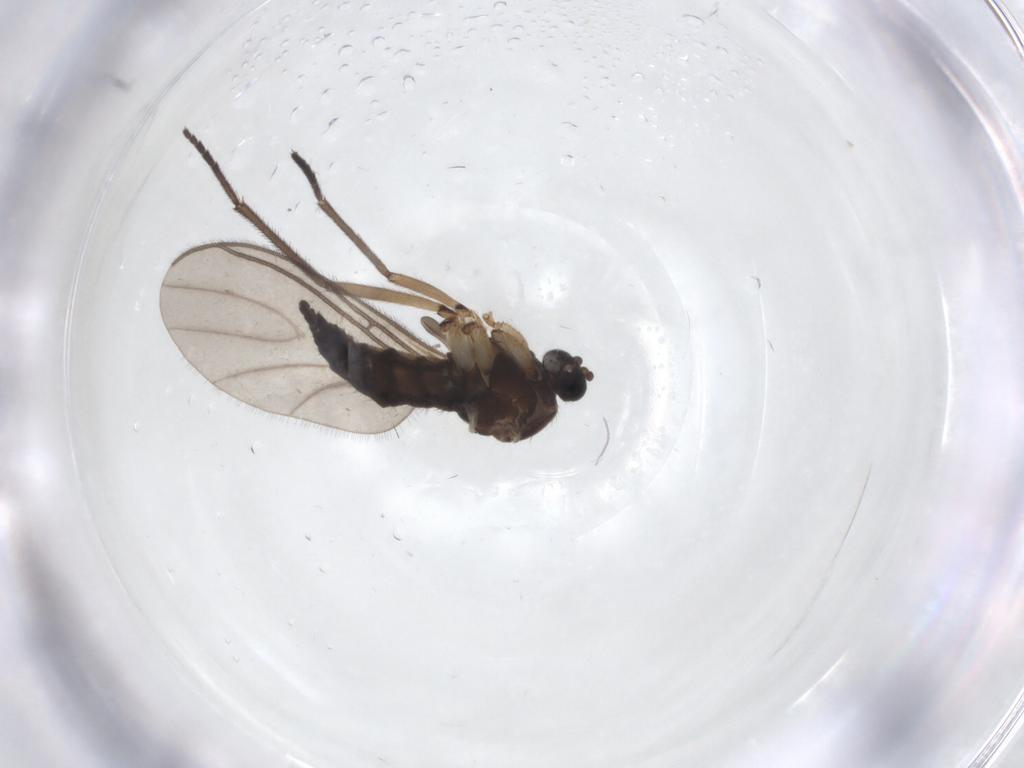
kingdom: Animalia
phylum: Arthropoda
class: Insecta
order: Diptera
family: Sciaridae
